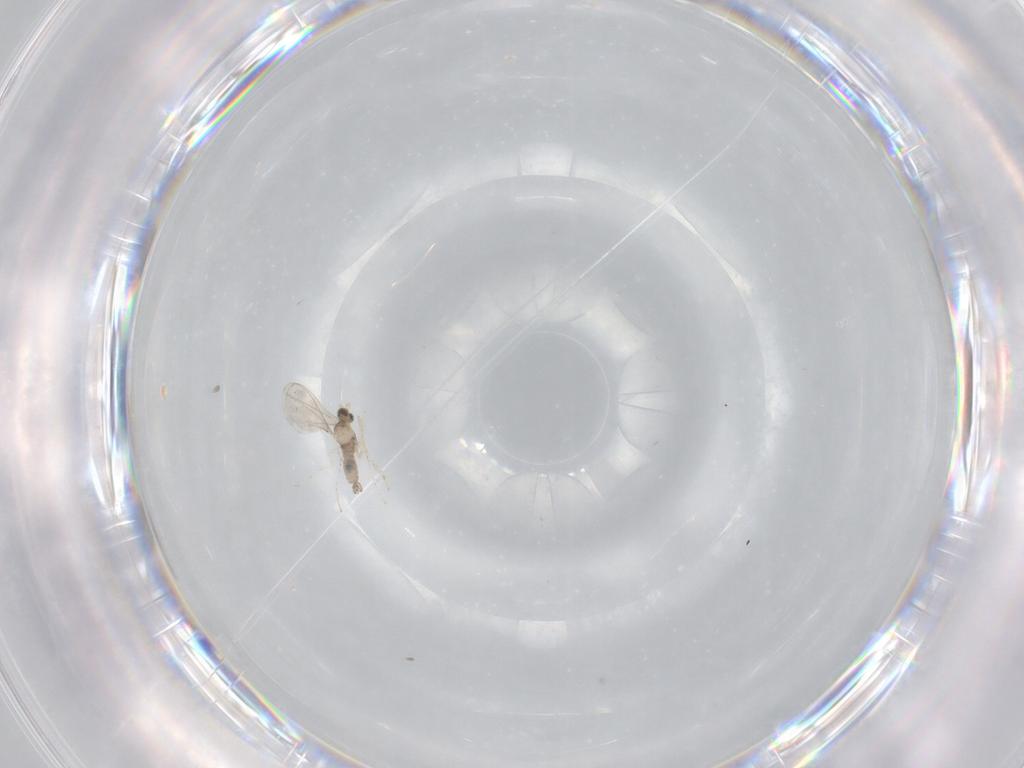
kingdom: Animalia
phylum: Arthropoda
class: Insecta
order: Diptera
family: Cecidomyiidae
